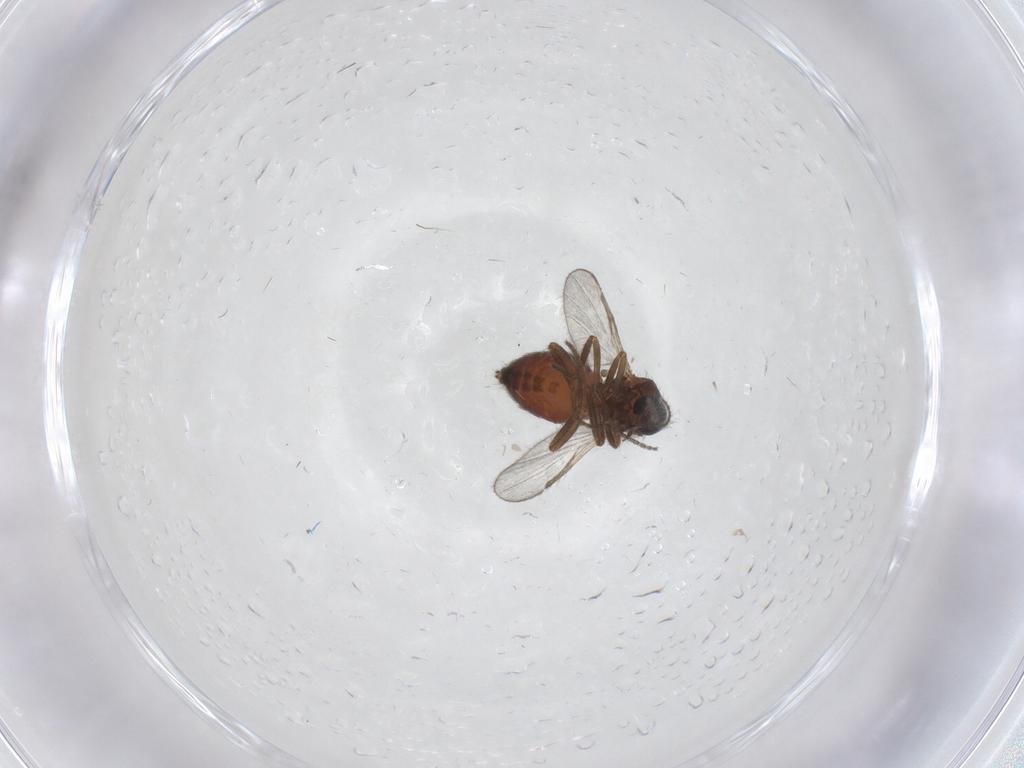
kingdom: Animalia
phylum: Arthropoda
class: Insecta
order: Diptera
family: Ceratopogonidae
